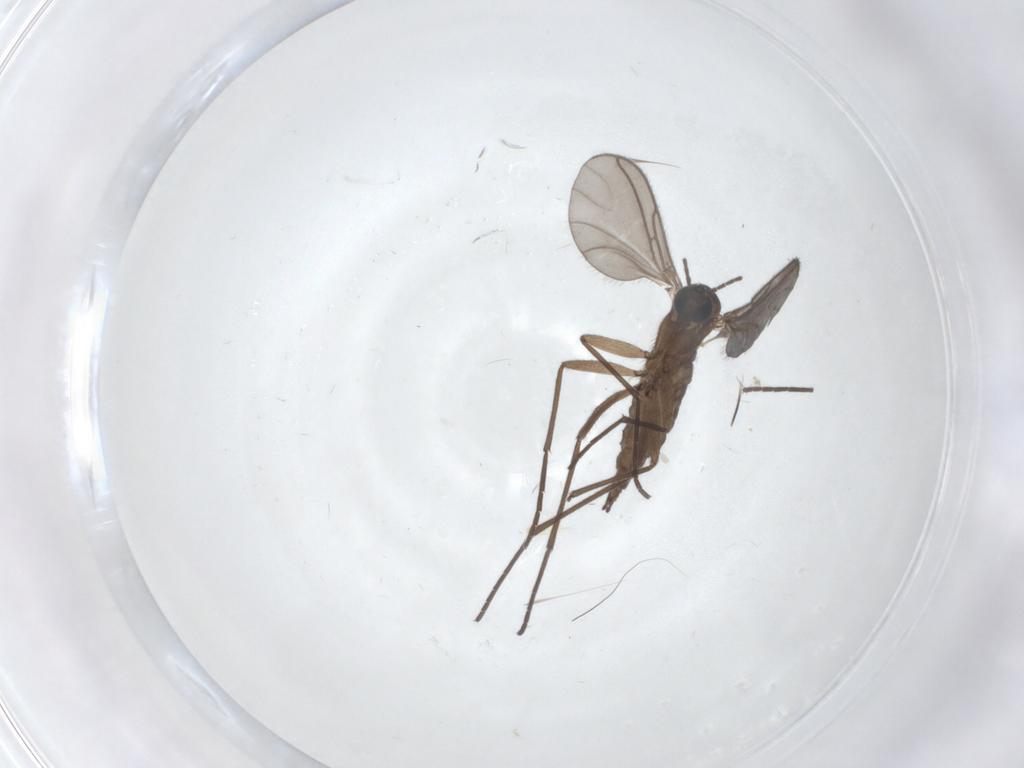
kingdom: Animalia
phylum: Arthropoda
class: Insecta
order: Diptera
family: Sciaridae
